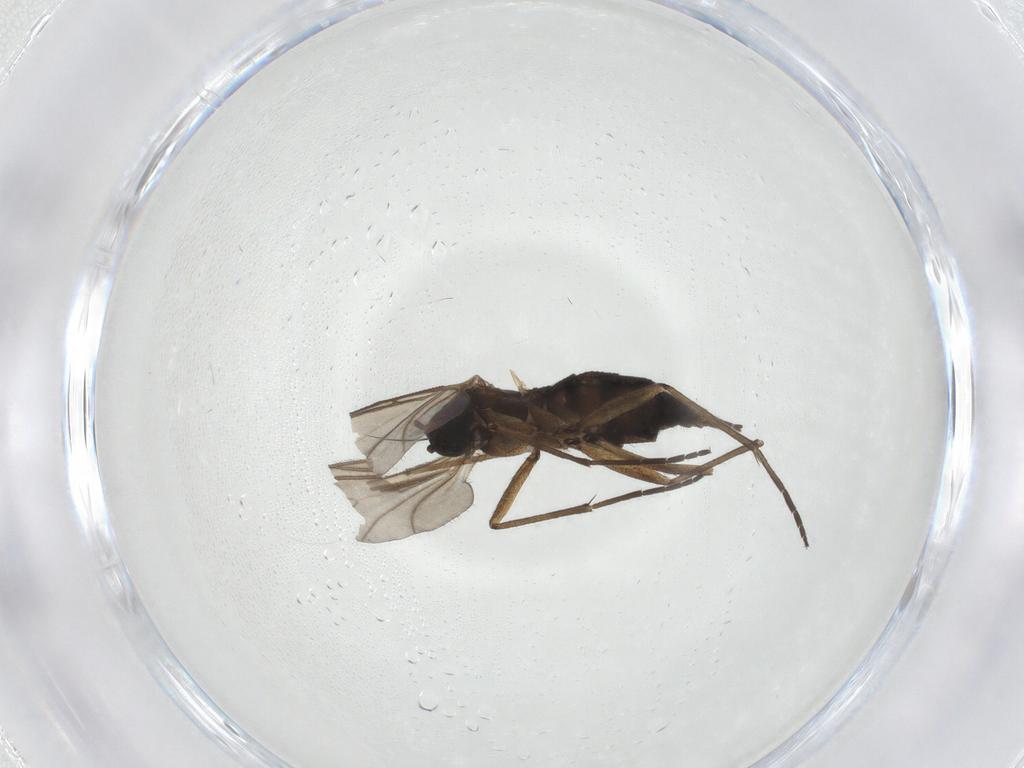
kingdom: Animalia
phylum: Arthropoda
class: Insecta
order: Diptera
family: Sciaridae
